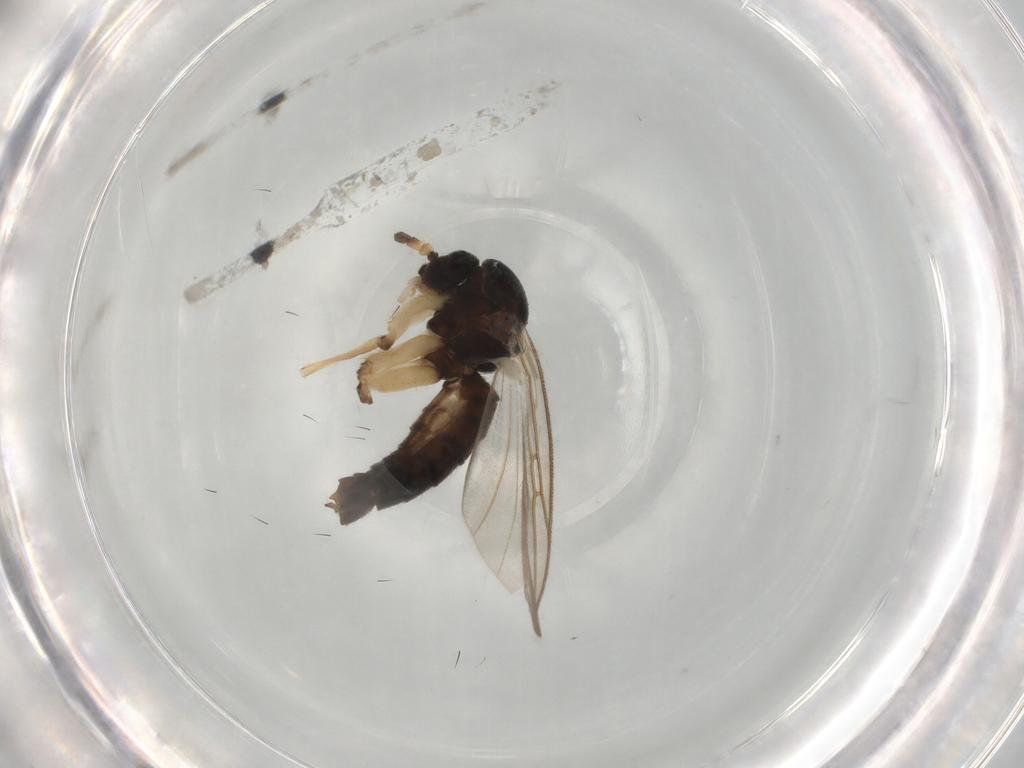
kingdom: Animalia
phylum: Arthropoda
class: Insecta
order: Diptera
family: Chironomidae
